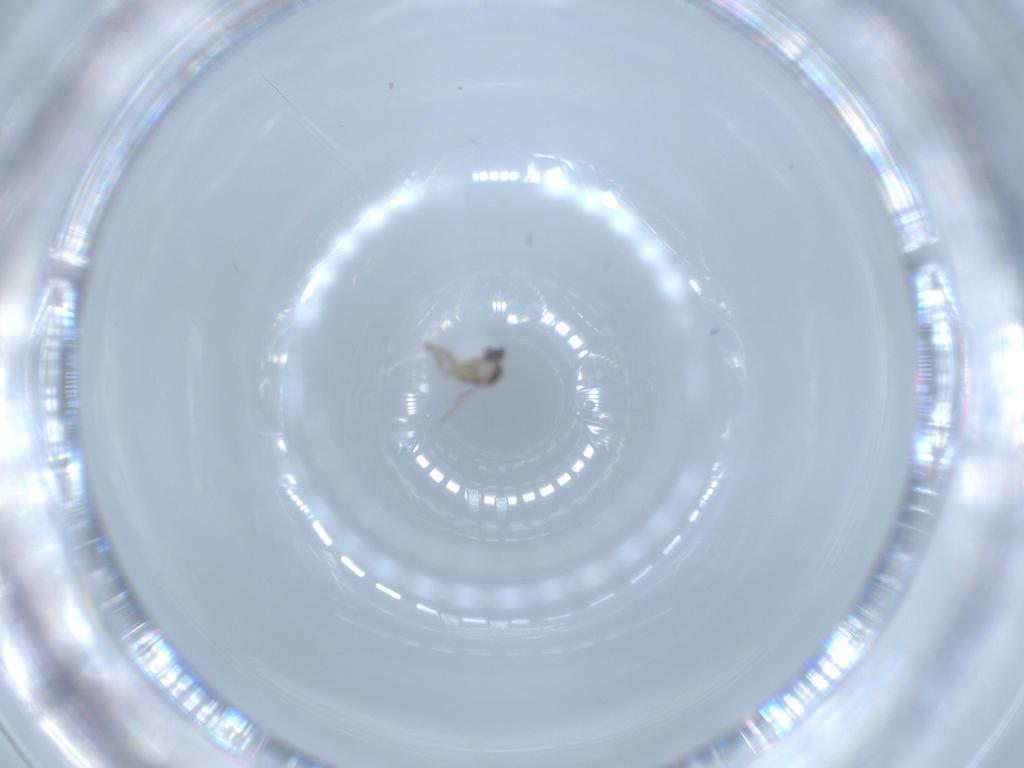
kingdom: Animalia
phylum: Arthropoda
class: Insecta
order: Diptera
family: Cecidomyiidae
